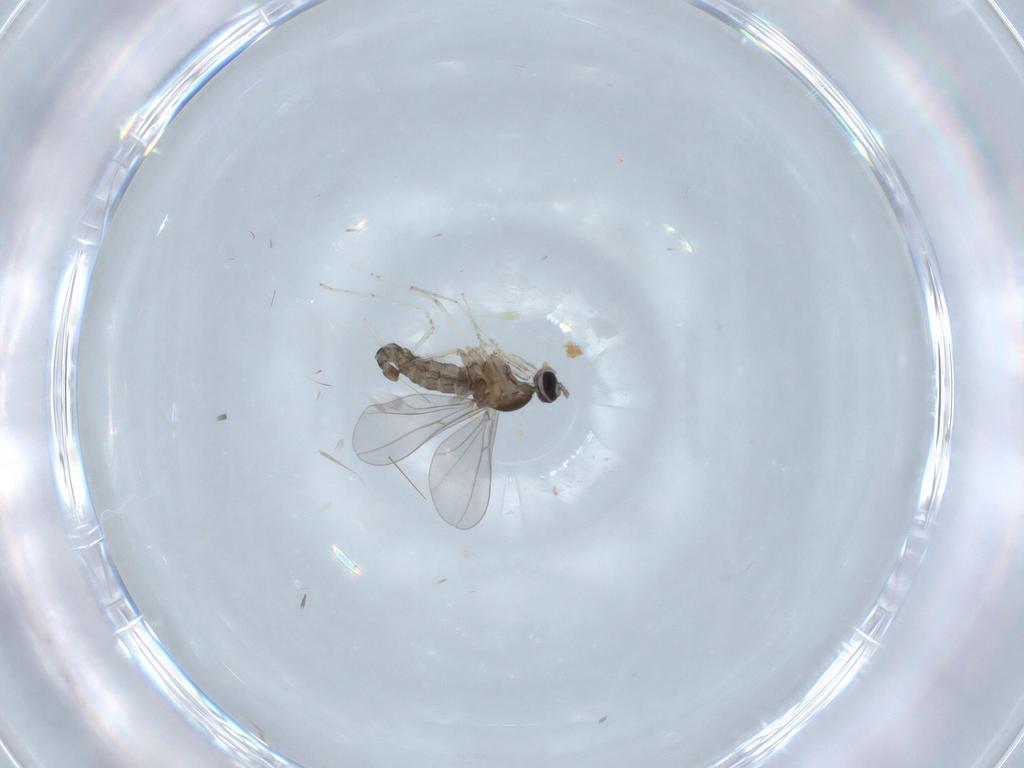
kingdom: Animalia
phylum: Arthropoda
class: Insecta
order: Diptera
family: Cecidomyiidae
